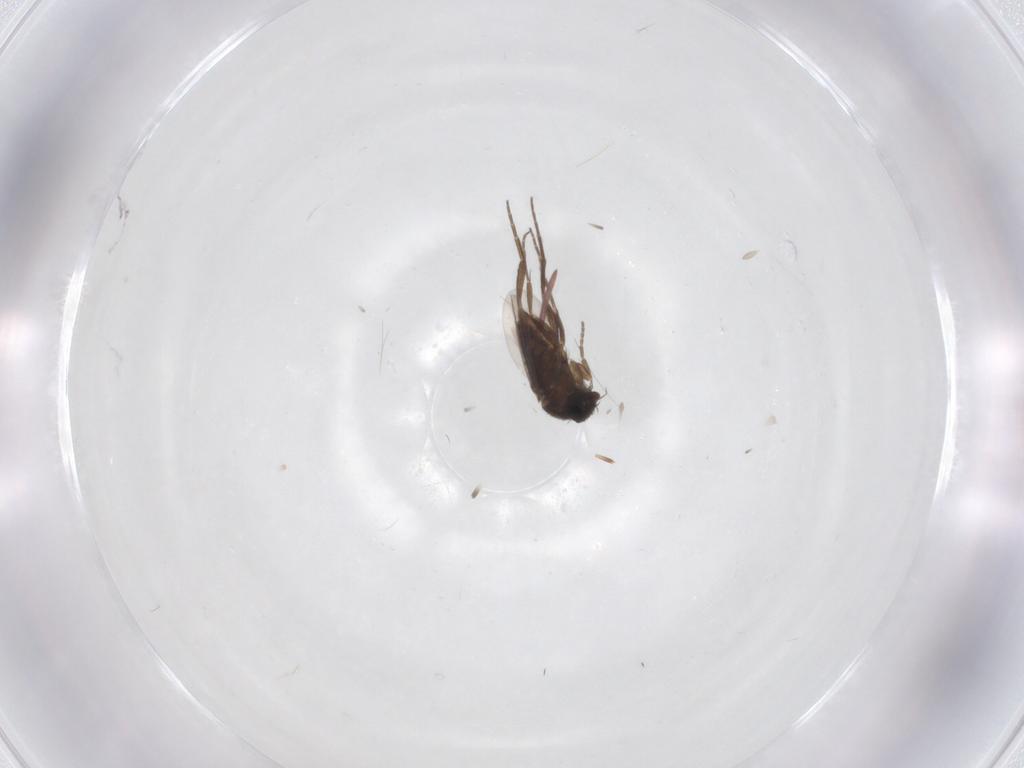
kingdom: Animalia
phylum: Arthropoda
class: Insecta
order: Diptera
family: Phoridae
